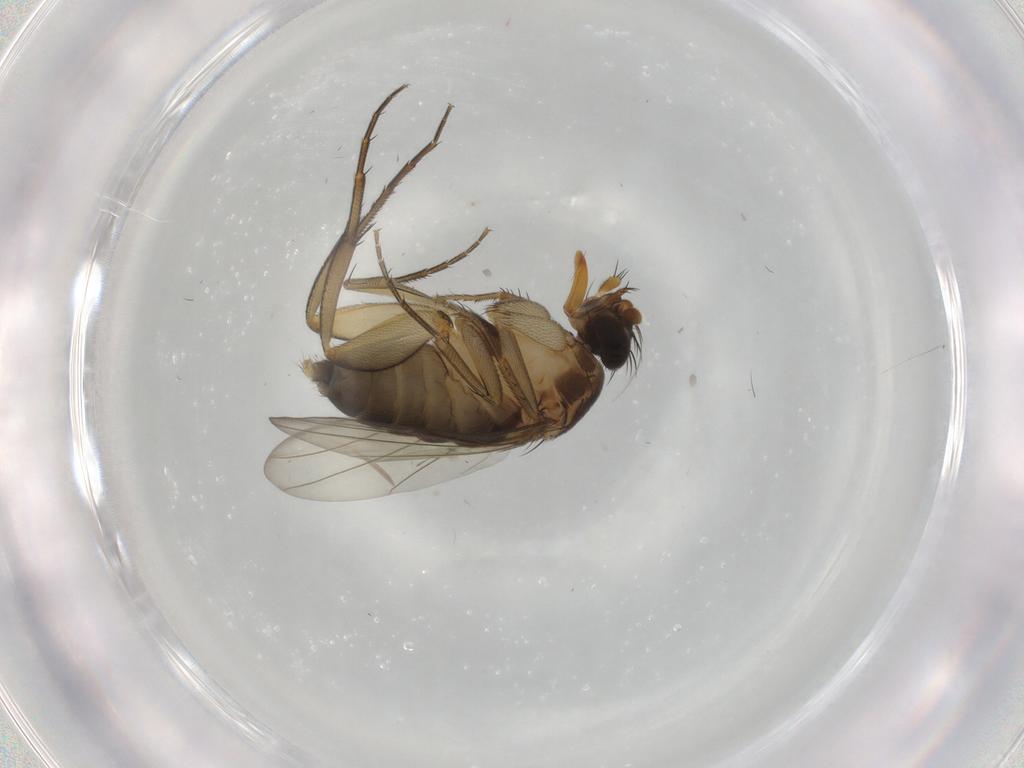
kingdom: Animalia
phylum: Arthropoda
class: Insecta
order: Diptera
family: Phoridae
